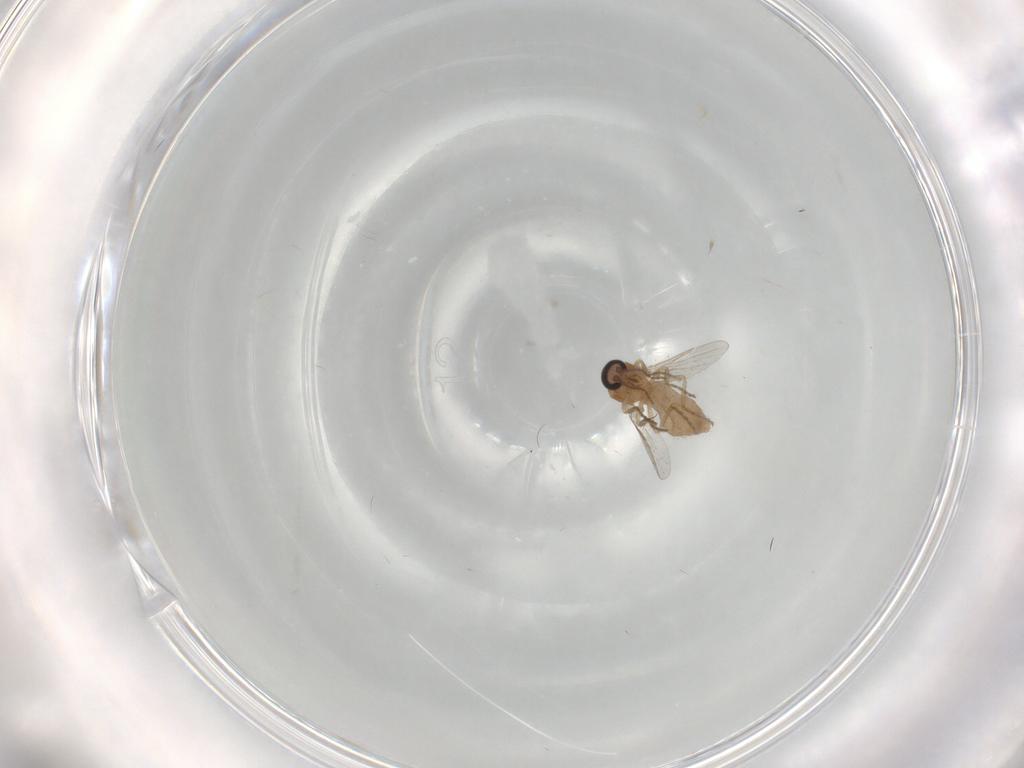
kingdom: Animalia
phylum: Arthropoda
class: Insecta
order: Diptera
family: Ceratopogonidae
